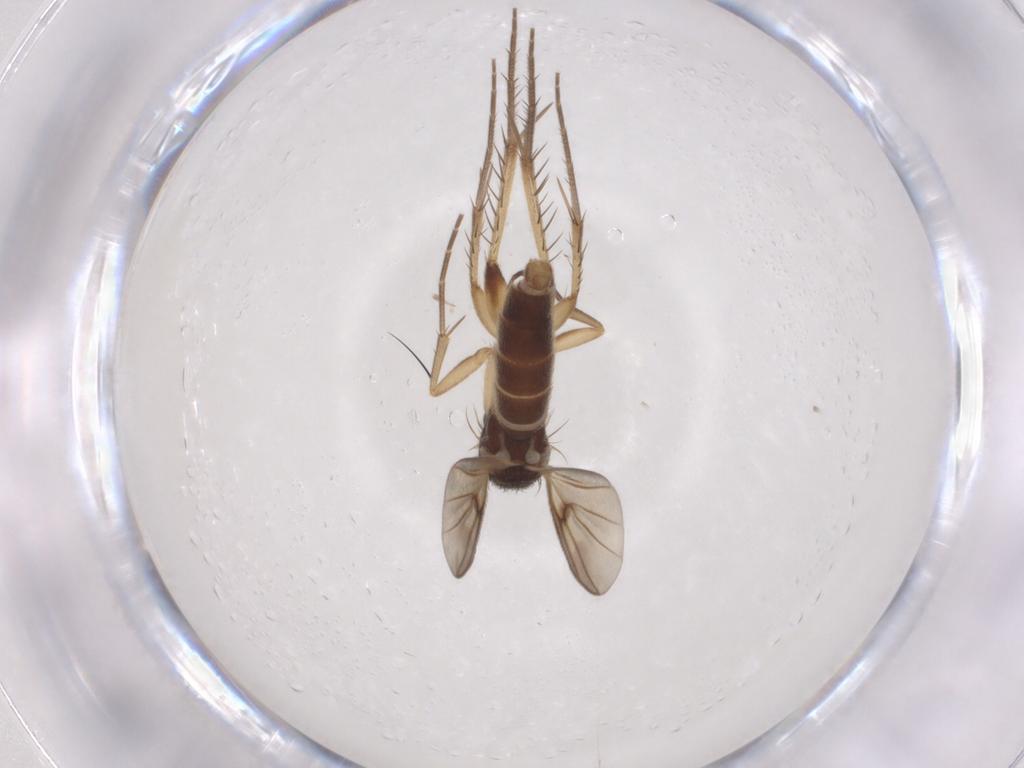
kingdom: Animalia
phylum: Arthropoda
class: Insecta
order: Diptera
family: Mycetophilidae
